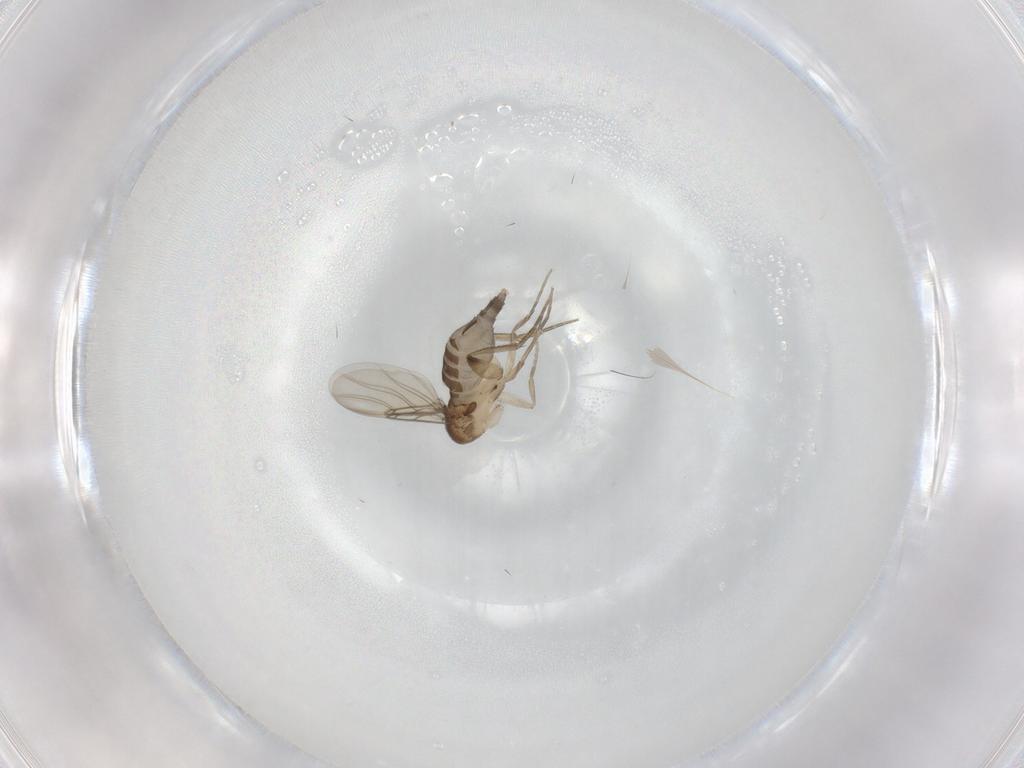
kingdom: Animalia
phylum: Arthropoda
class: Insecta
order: Diptera
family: Phoridae
